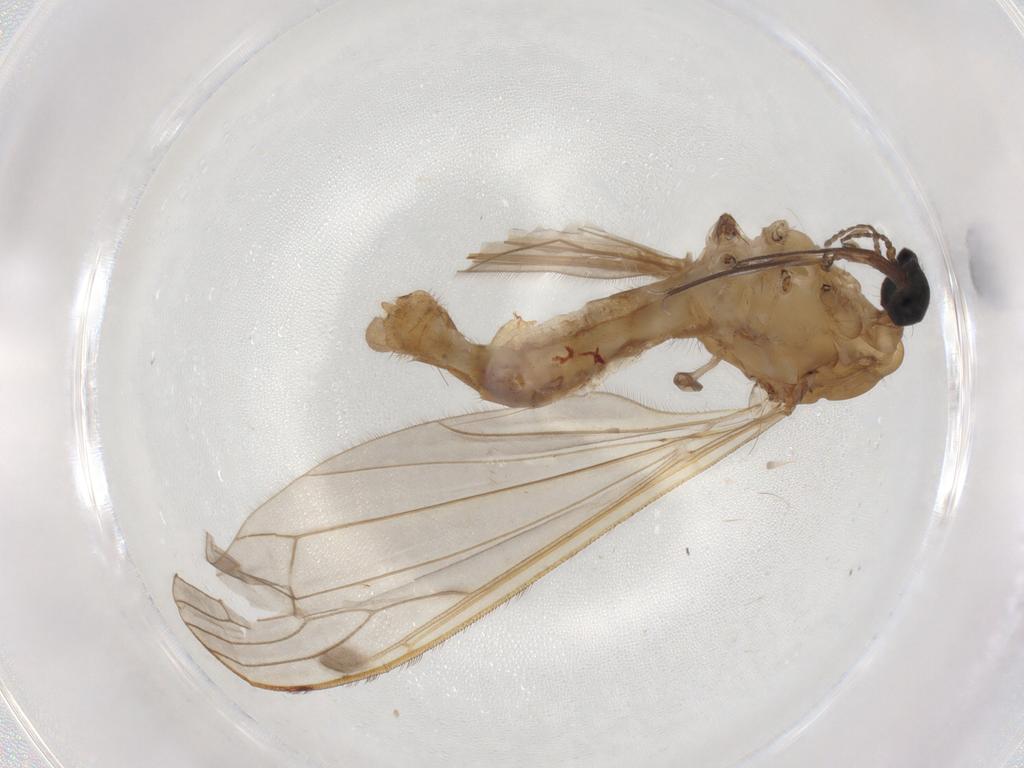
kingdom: Animalia
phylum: Arthropoda
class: Insecta
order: Diptera
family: Limoniidae
